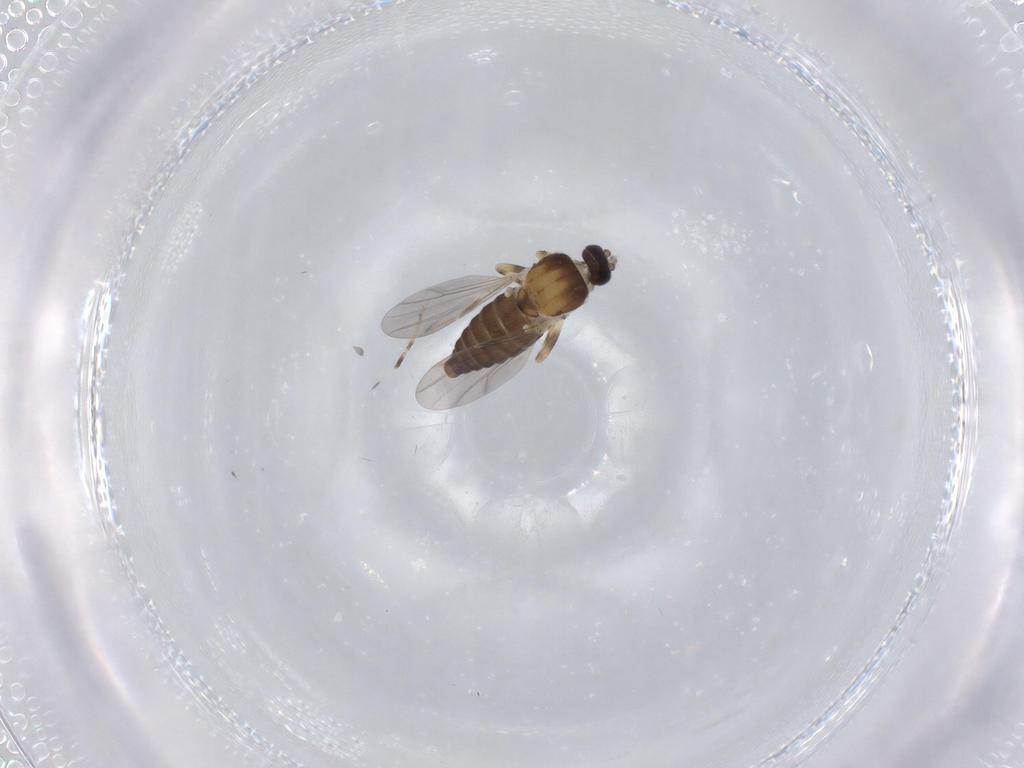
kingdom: Animalia
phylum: Arthropoda
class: Insecta
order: Diptera
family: Ceratopogonidae
